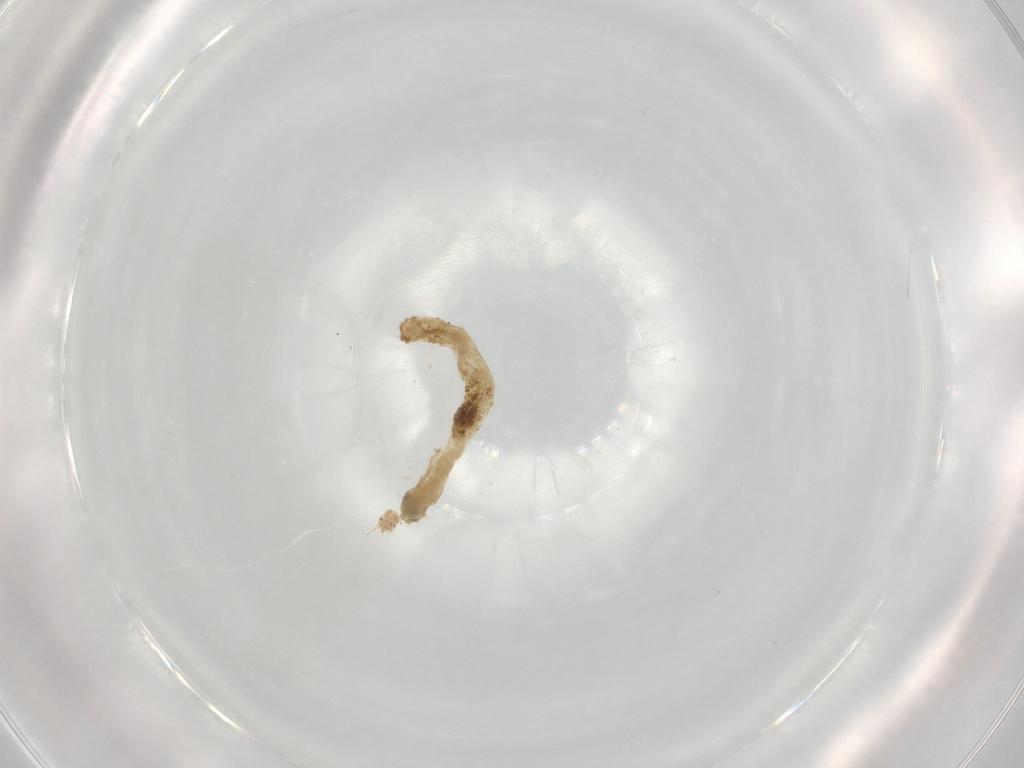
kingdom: Animalia
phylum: Arthropoda
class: Insecta
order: Diptera
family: Chironomidae
